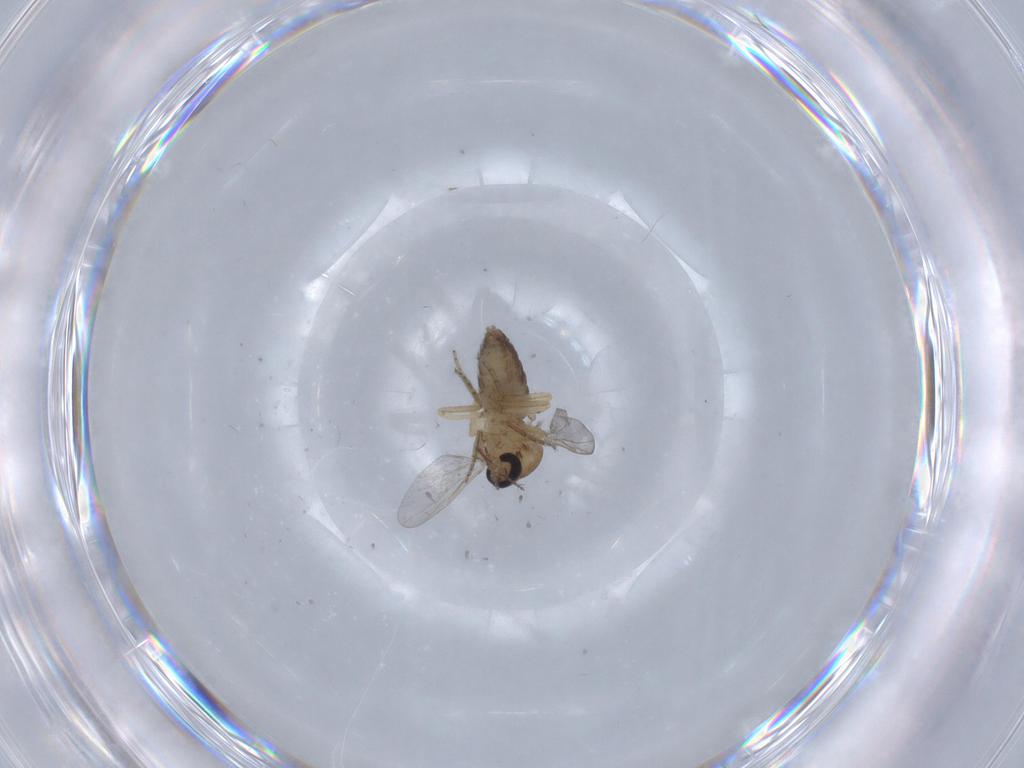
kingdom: Animalia
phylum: Arthropoda
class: Insecta
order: Diptera
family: Ceratopogonidae
